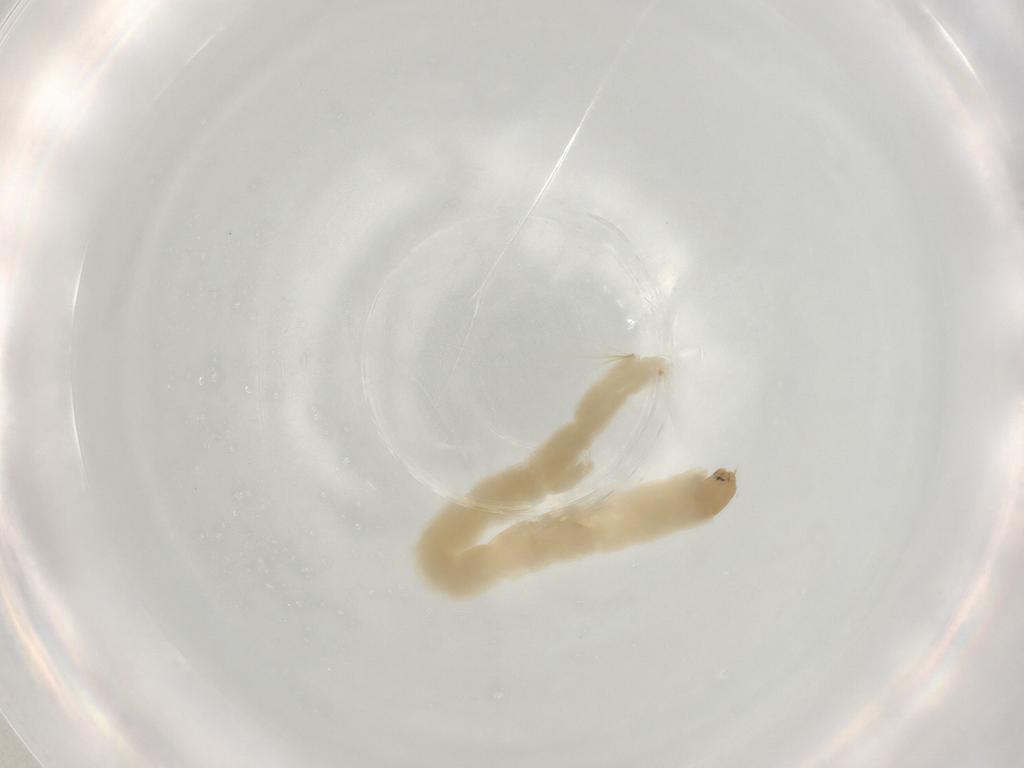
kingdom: Animalia
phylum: Arthropoda
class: Insecta
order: Diptera
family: Chironomidae
